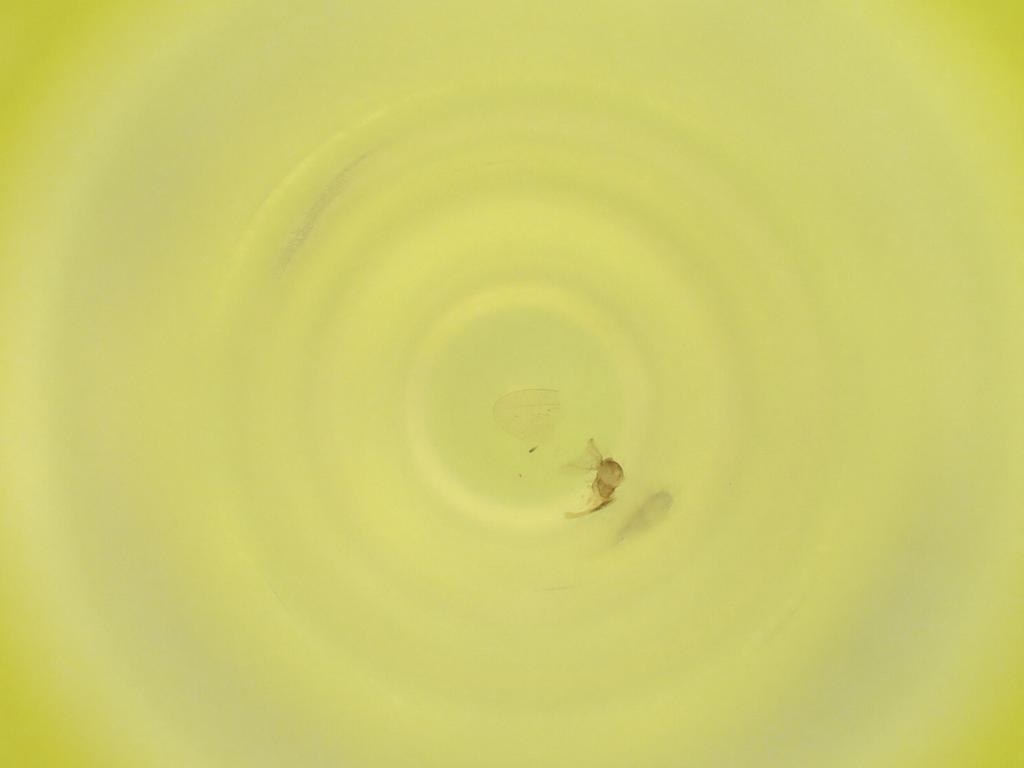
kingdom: Animalia
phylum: Arthropoda
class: Insecta
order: Diptera
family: Cecidomyiidae
